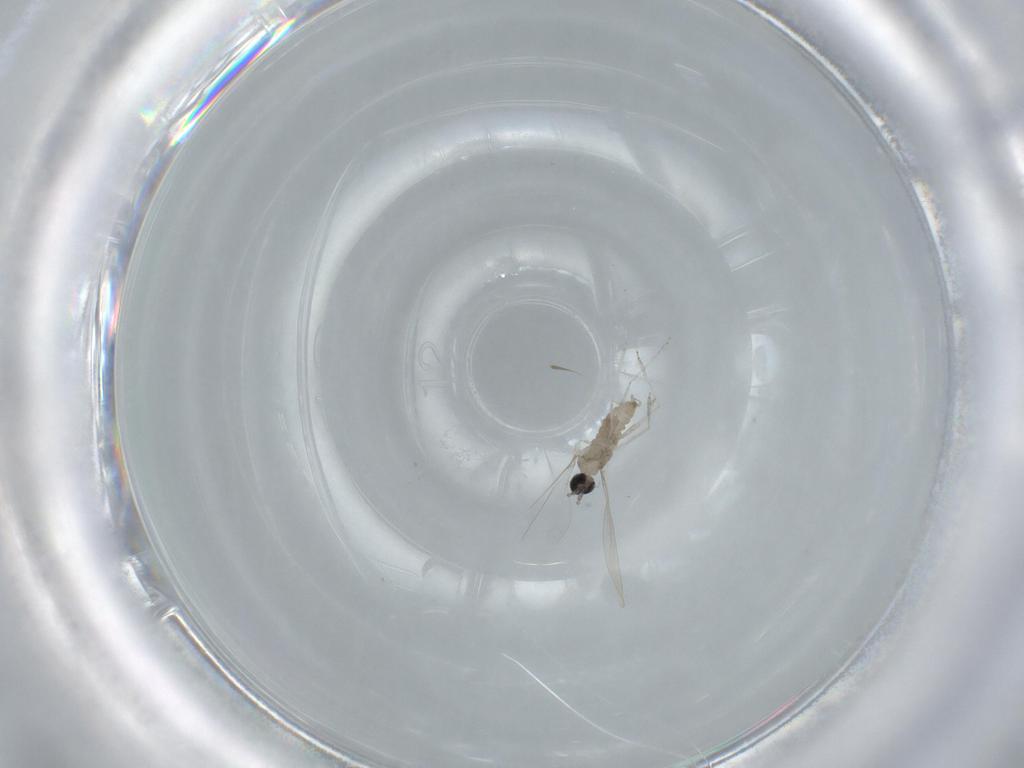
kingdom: Animalia
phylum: Arthropoda
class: Insecta
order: Diptera
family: Cecidomyiidae
